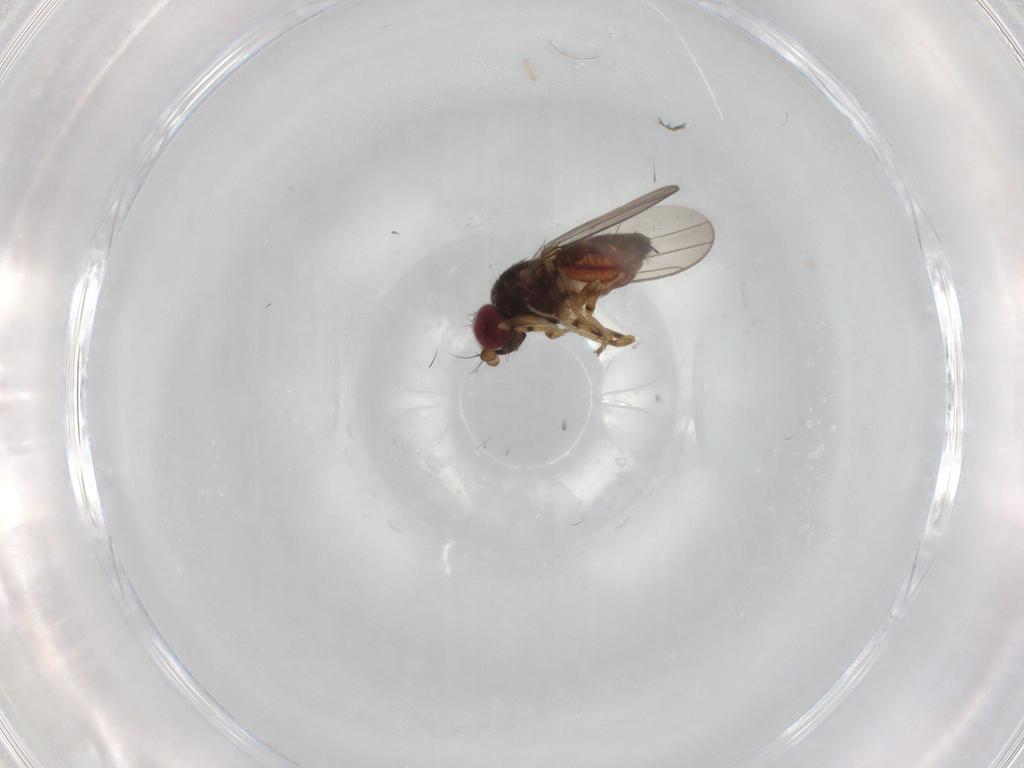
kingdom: Animalia
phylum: Arthropoda
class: Insecta
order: Diptera
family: Chloropidae
